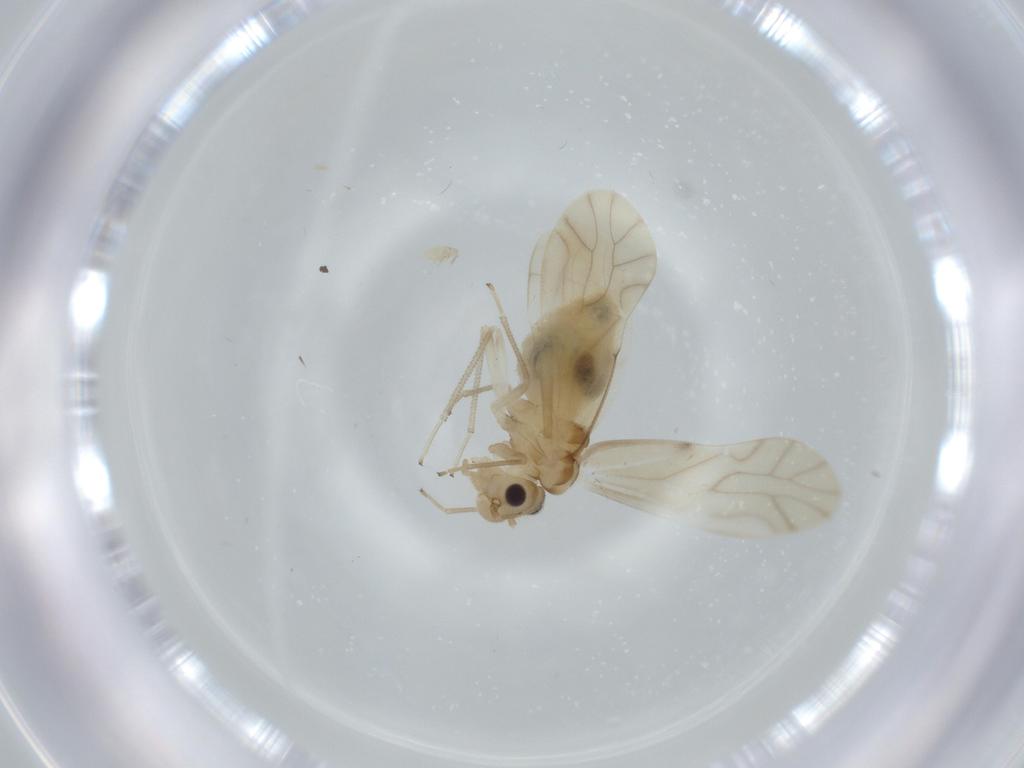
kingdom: Animalia
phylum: Arthropoda
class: Insecta
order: Psocodea
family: Caeciliusidae
